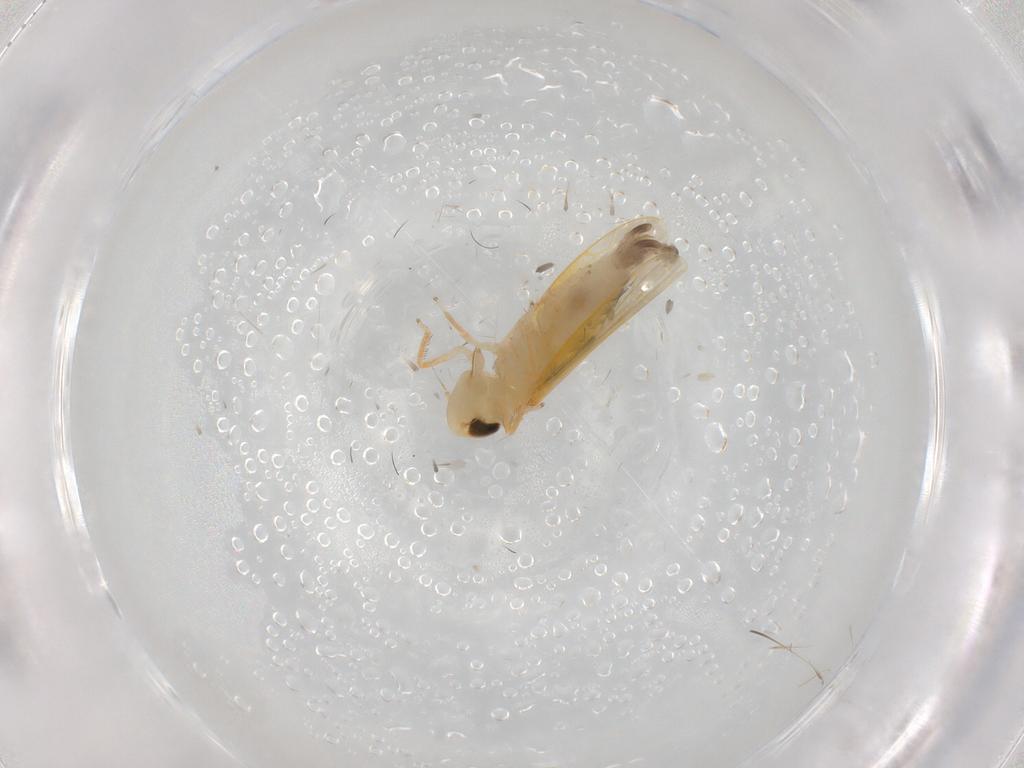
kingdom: Animalia
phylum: Arthropoda
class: Insecta
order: Hemiptera
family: Cicadellidae
